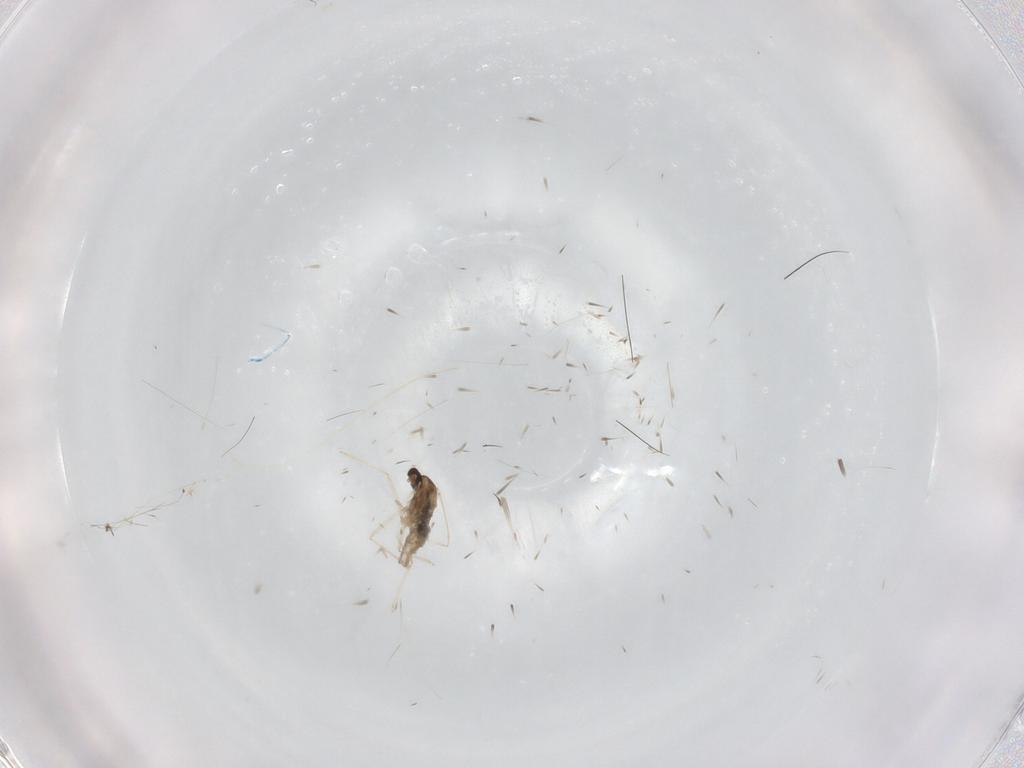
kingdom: Animalia
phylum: Arthropoda
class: Insecta
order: Diptera
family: Cecidomyiidae
